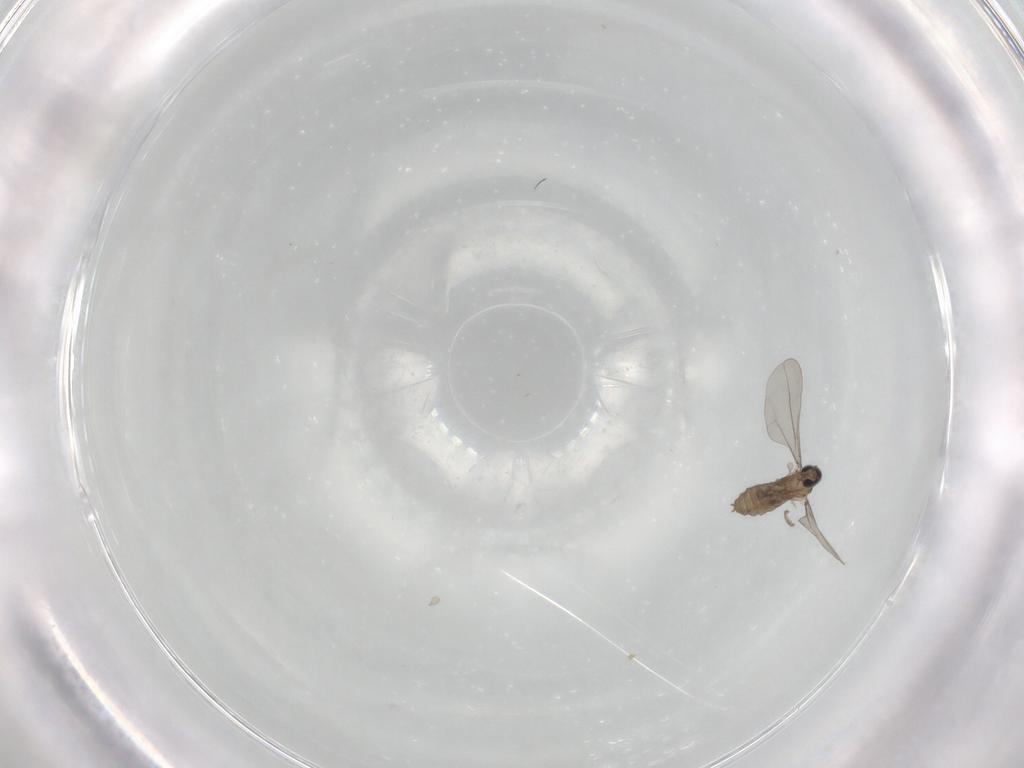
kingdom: Animalia
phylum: Arthropoda
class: Insecta
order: Diptera
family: Cecidomyiidae
